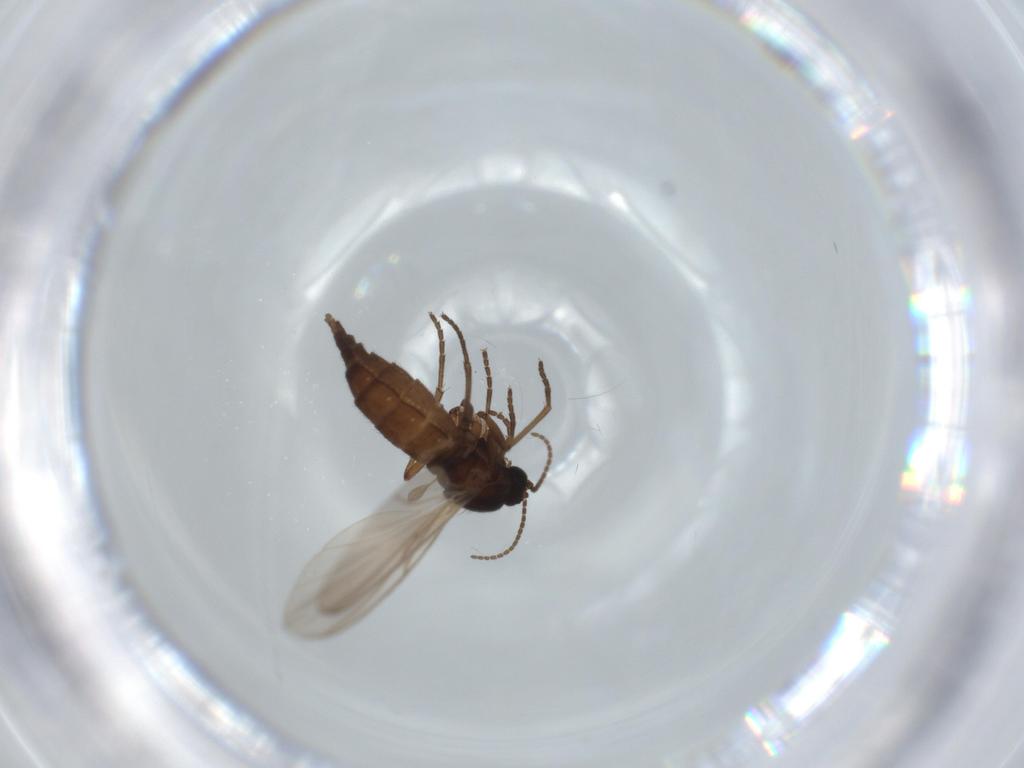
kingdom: Animalia
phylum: Arthropoda
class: Insecta
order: Diptera
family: Sciaridae
